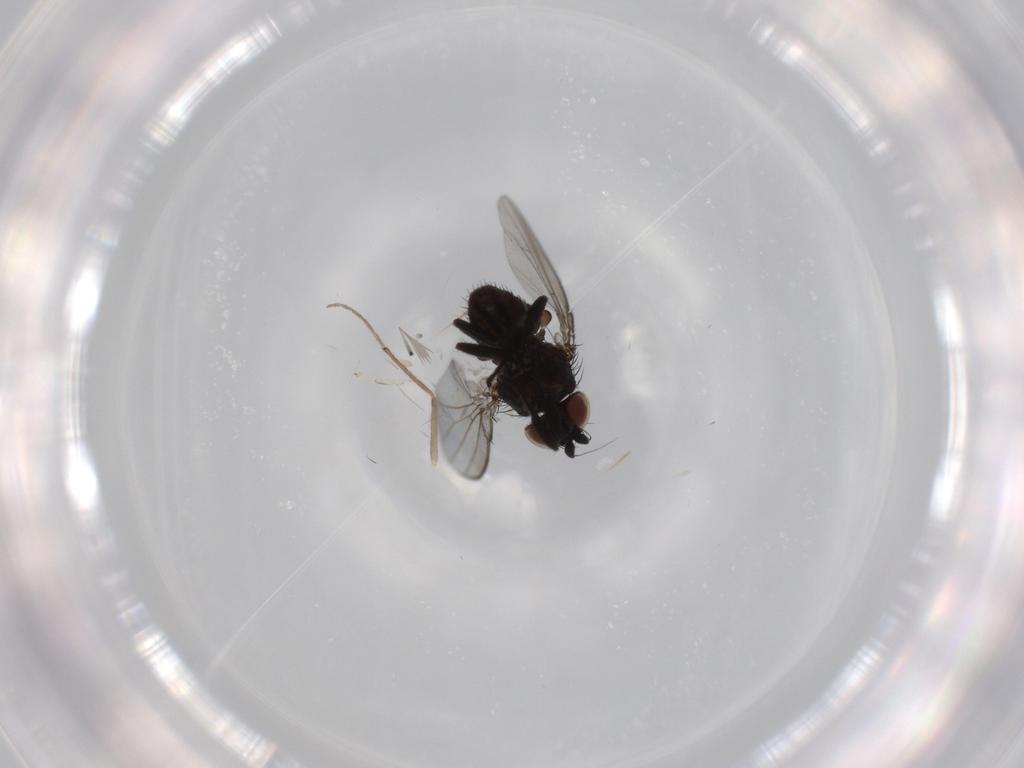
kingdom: Animalia
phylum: Arthropoda
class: Insecta
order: Diptera
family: Milichiidae
